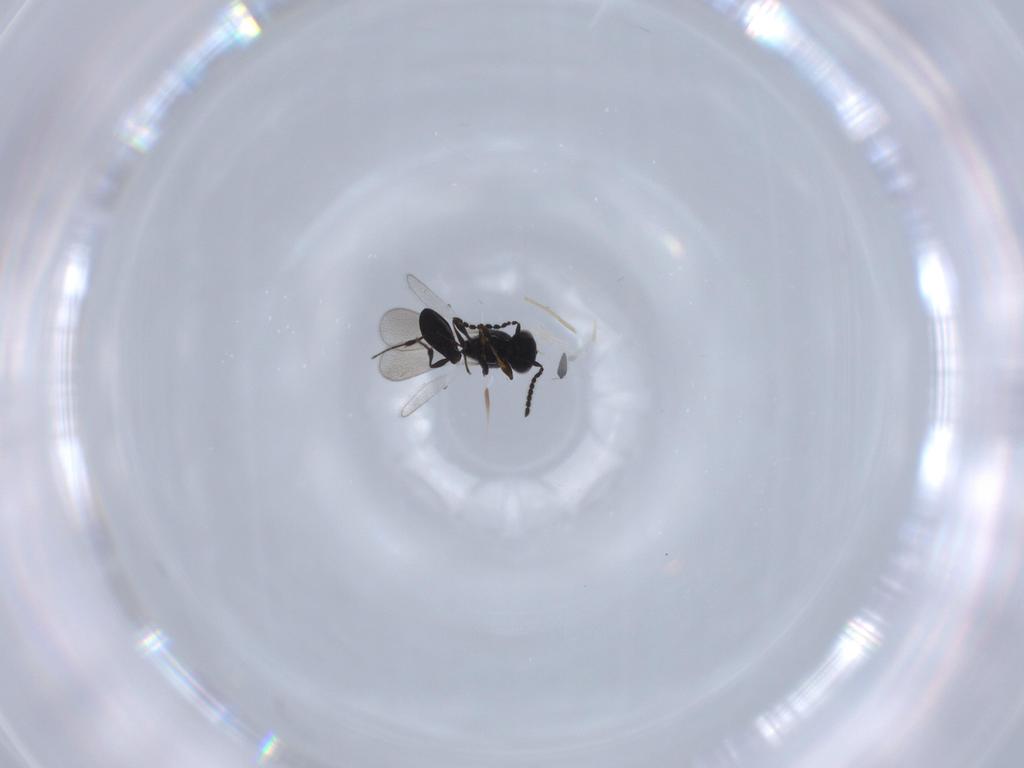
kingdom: Animalia
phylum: Arthropoda
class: Insecta
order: Hymenoptera
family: Platygastridae
